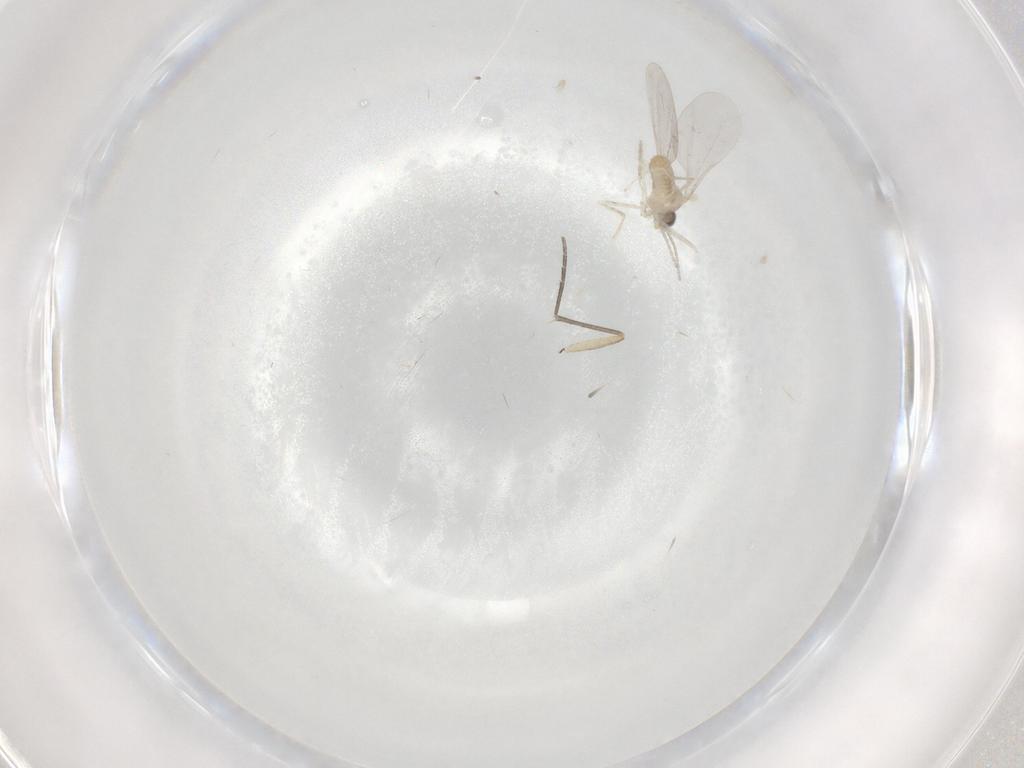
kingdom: Animalia
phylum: Arthropoda
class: Insecta
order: Diptera
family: Cecidomyiidae
